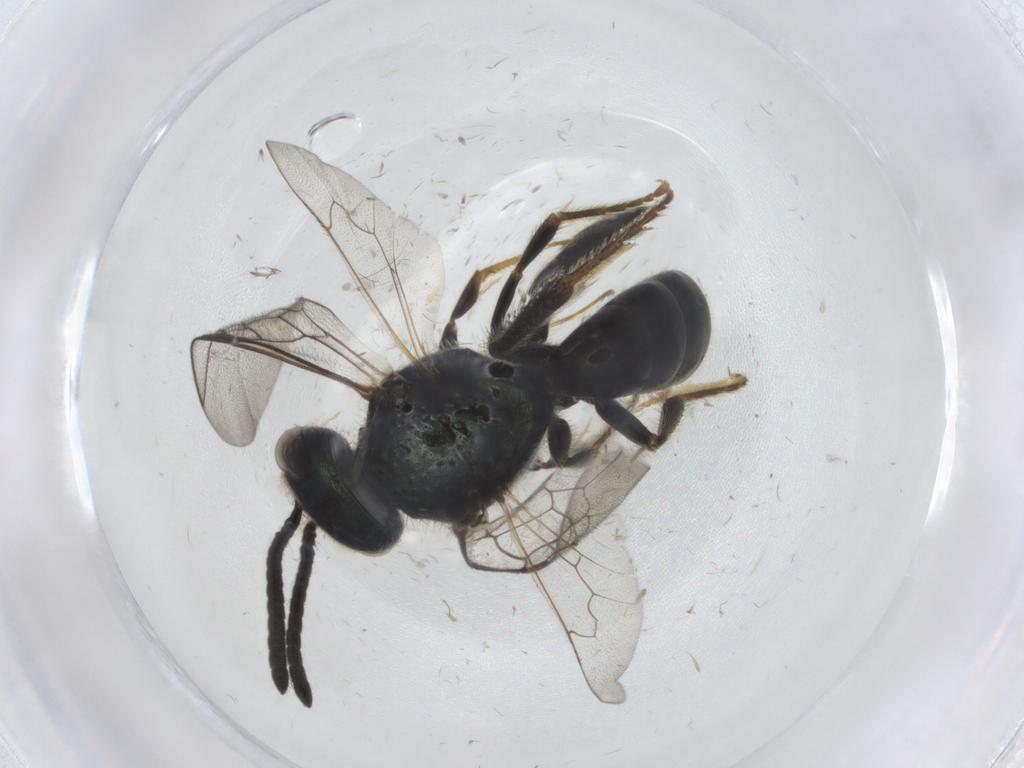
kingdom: Animalia
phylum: Arthropoda
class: Insecta
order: Hymenoptera
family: Halictidae
